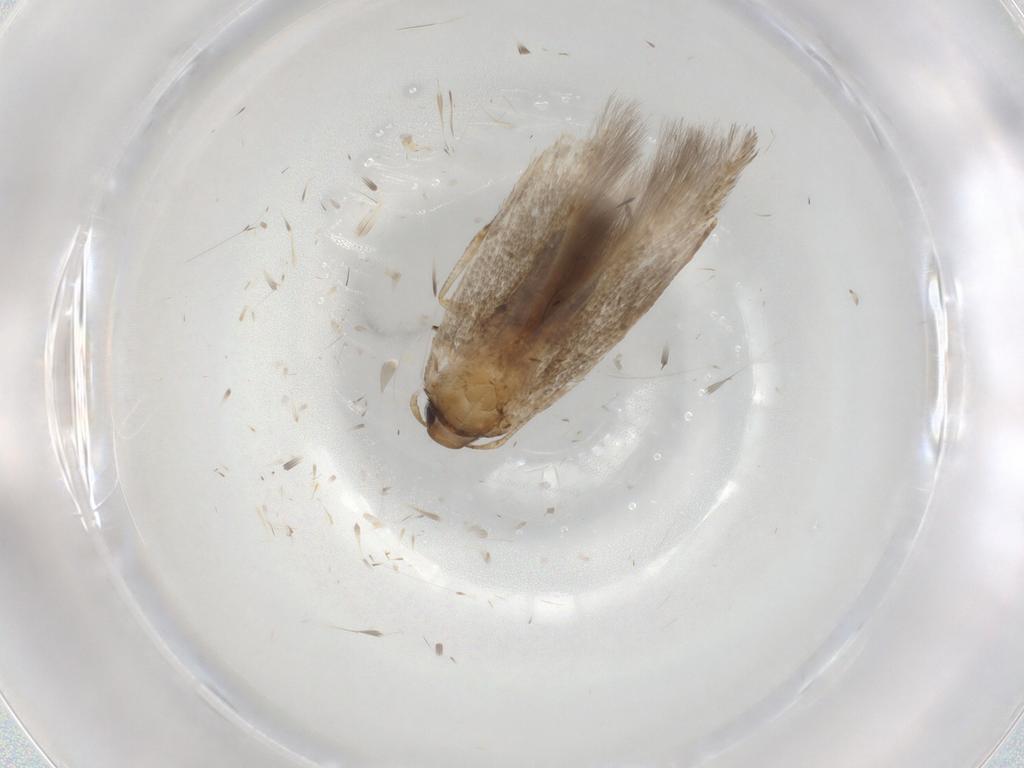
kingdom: Animalia
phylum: Arthropoda
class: Insecta
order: Lepidoptera
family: Cosmopterigidae
